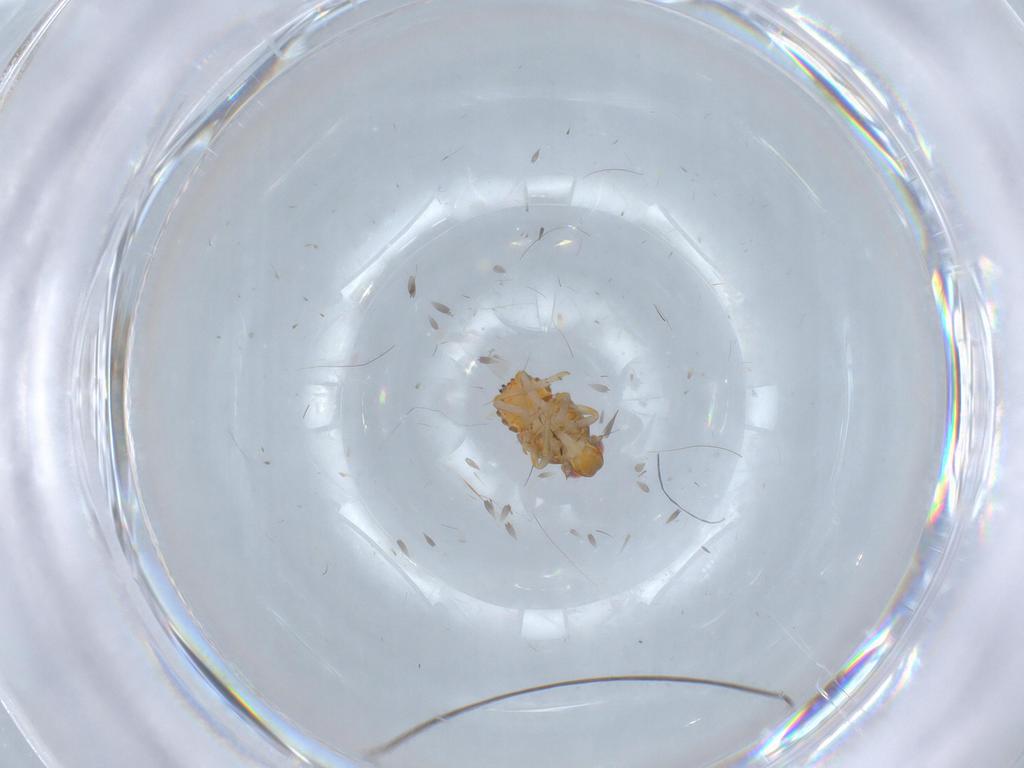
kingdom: Animalia
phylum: Arthropoda
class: Insecta
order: Hemiptera
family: Issidae
